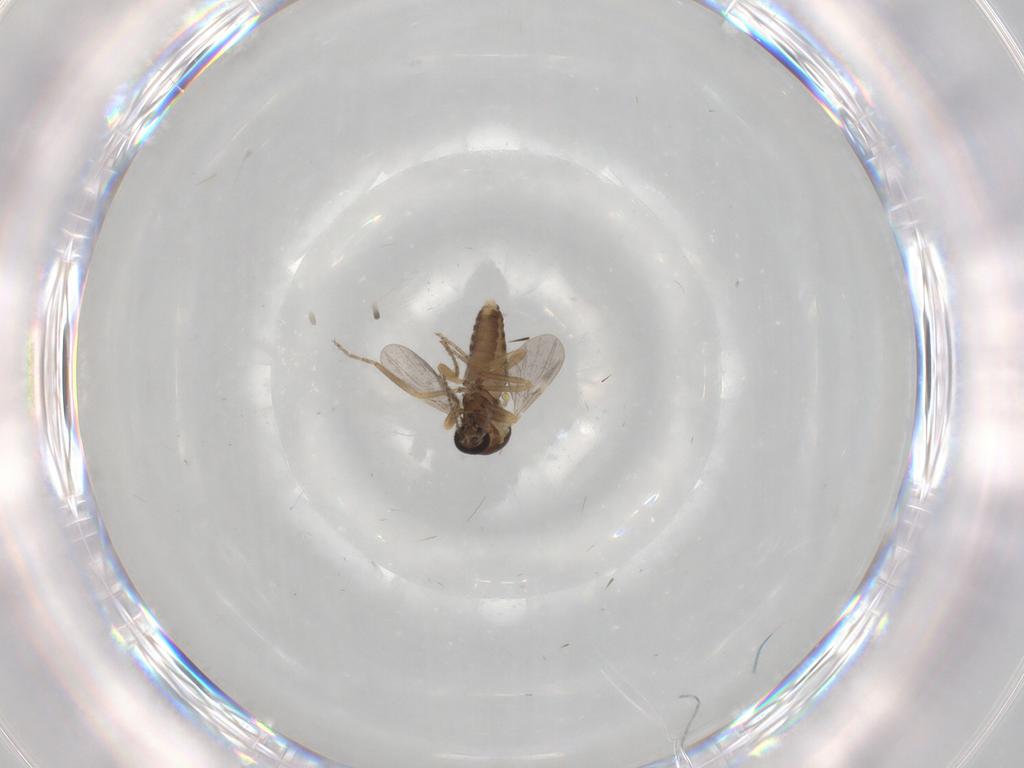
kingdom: Animalia
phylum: Arthropoda
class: Insecta
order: Diptera
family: Ceratopogonidae
